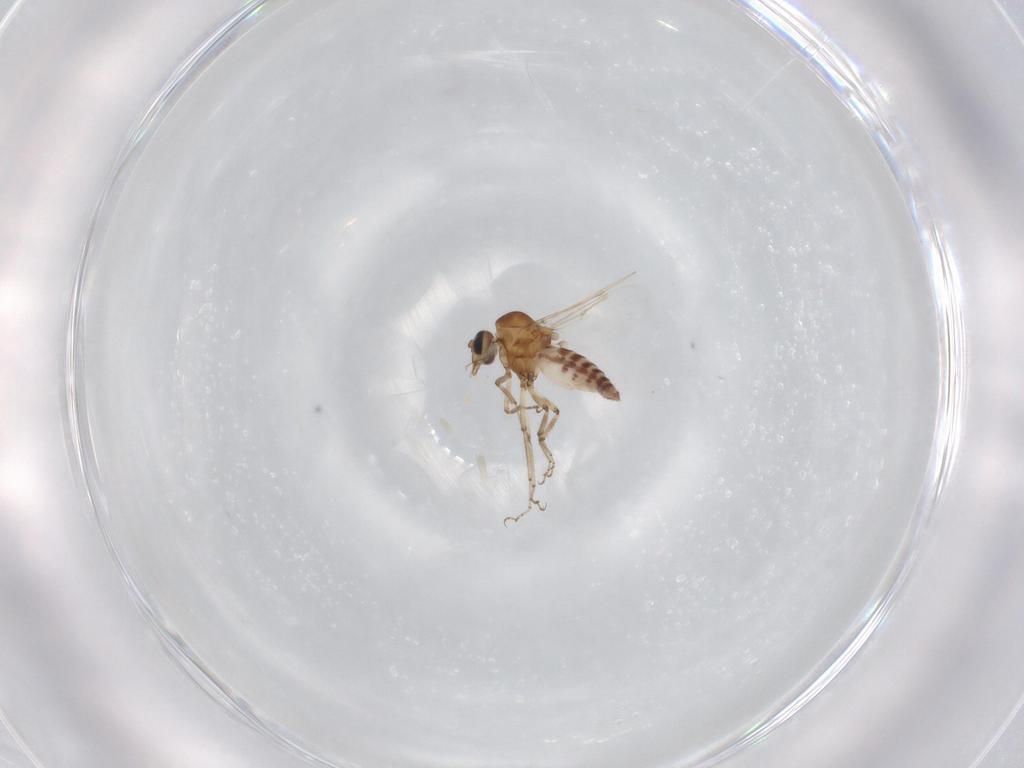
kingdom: Animalia
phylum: Arthropoda
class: Insecta
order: Diptera
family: Ceratopogonidae
